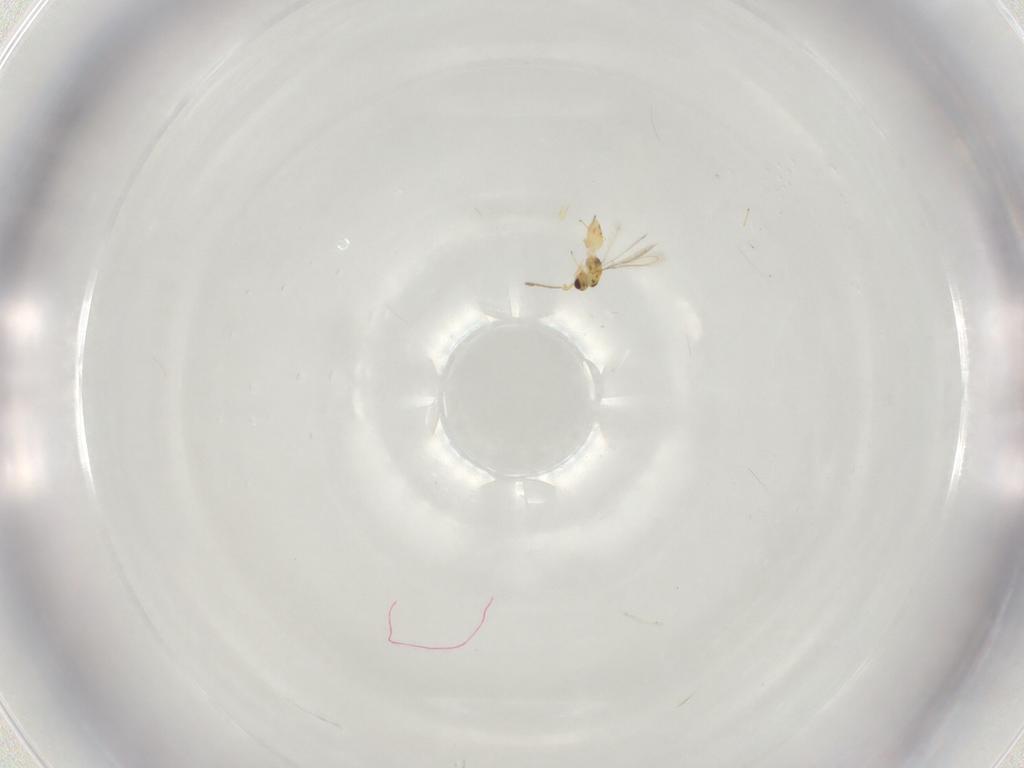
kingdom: Animalia
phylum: Arthropoda
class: Insecta
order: Hymenoptera
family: Mymaridae
